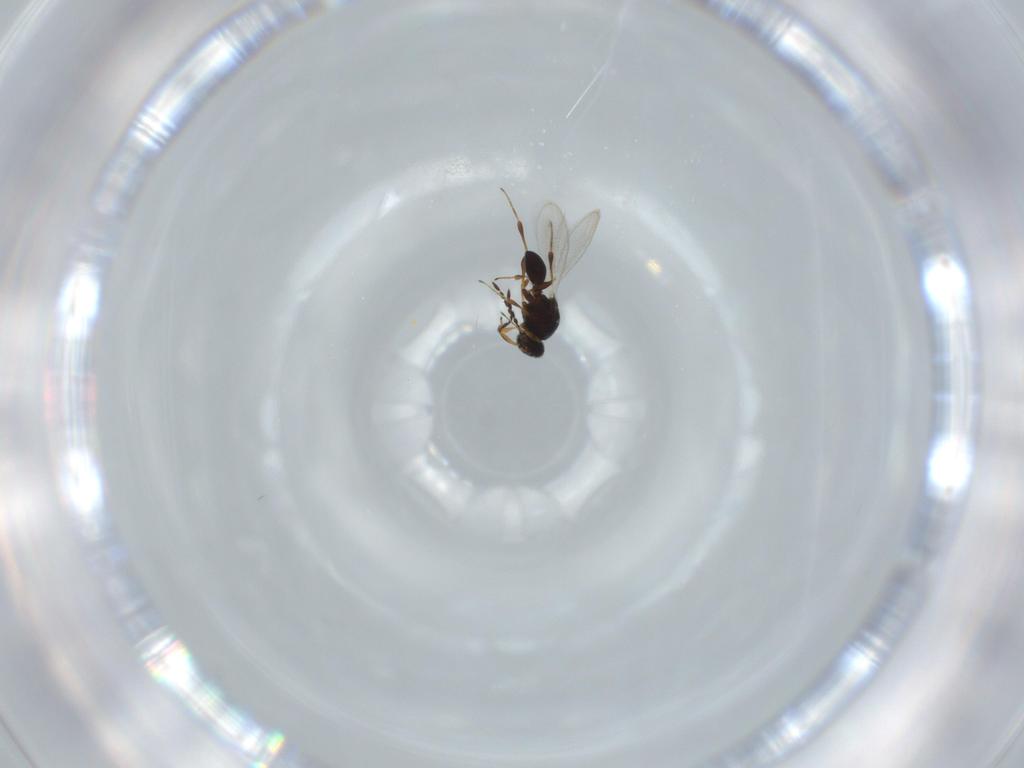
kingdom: Animalia
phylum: Arthropoda
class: Insecta
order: Hymenoptera
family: Platygastridae
